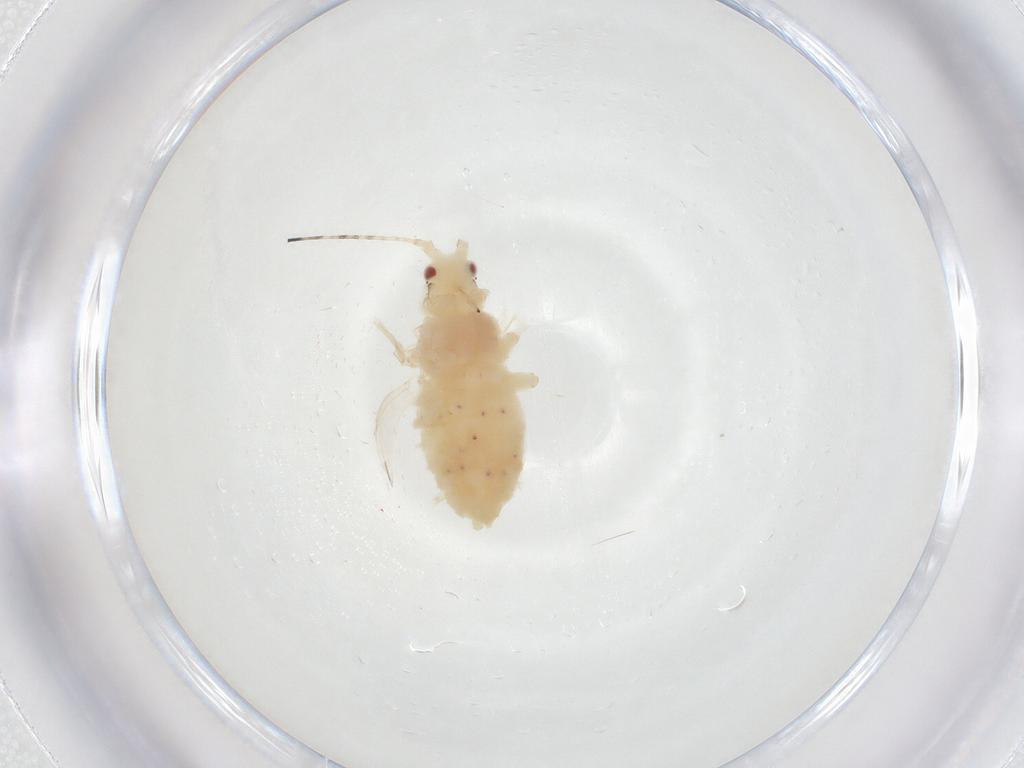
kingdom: Animalia
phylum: Arthropoda
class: Insecta
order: Hemiptera
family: Aphididae
